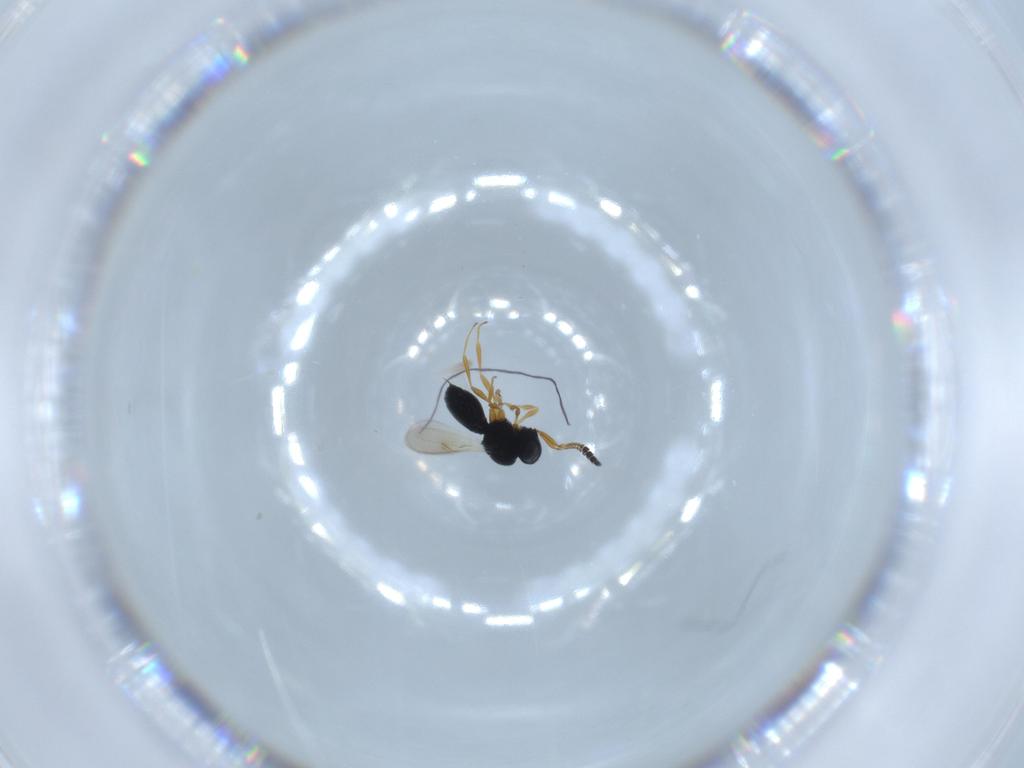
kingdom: Animalia
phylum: Arthropoda
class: Insecta
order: Hymenoptera
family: Scelionidae
